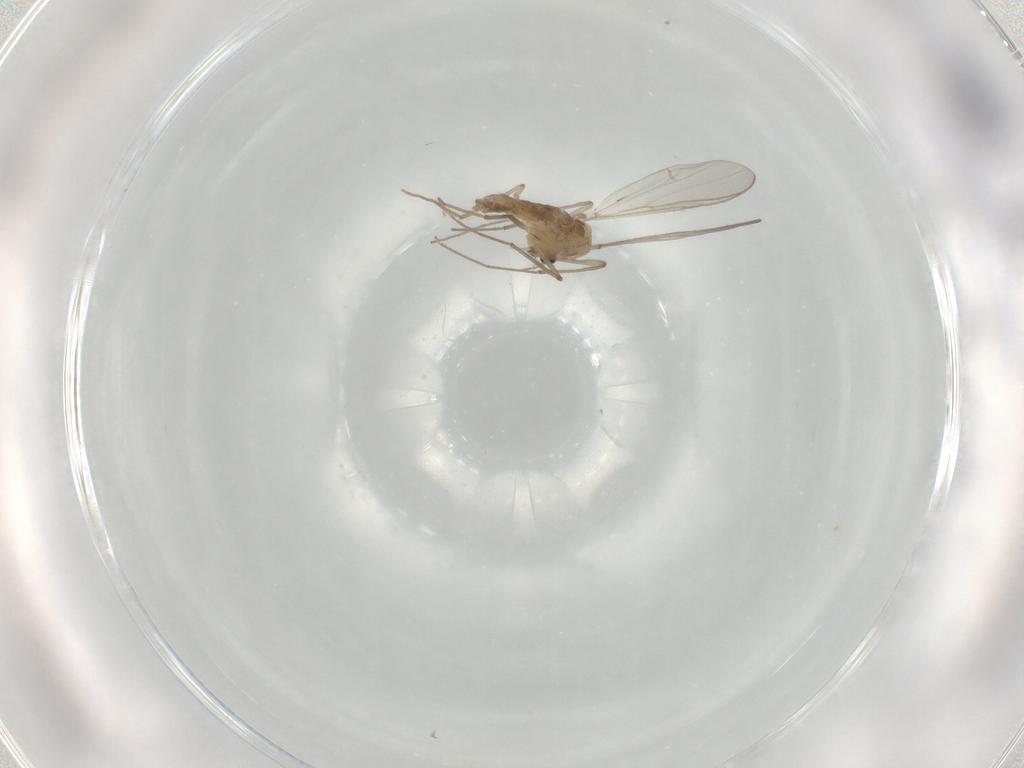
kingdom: Animalia
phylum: Arthropoda
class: Insecta
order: Diptera
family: Chironomidae
